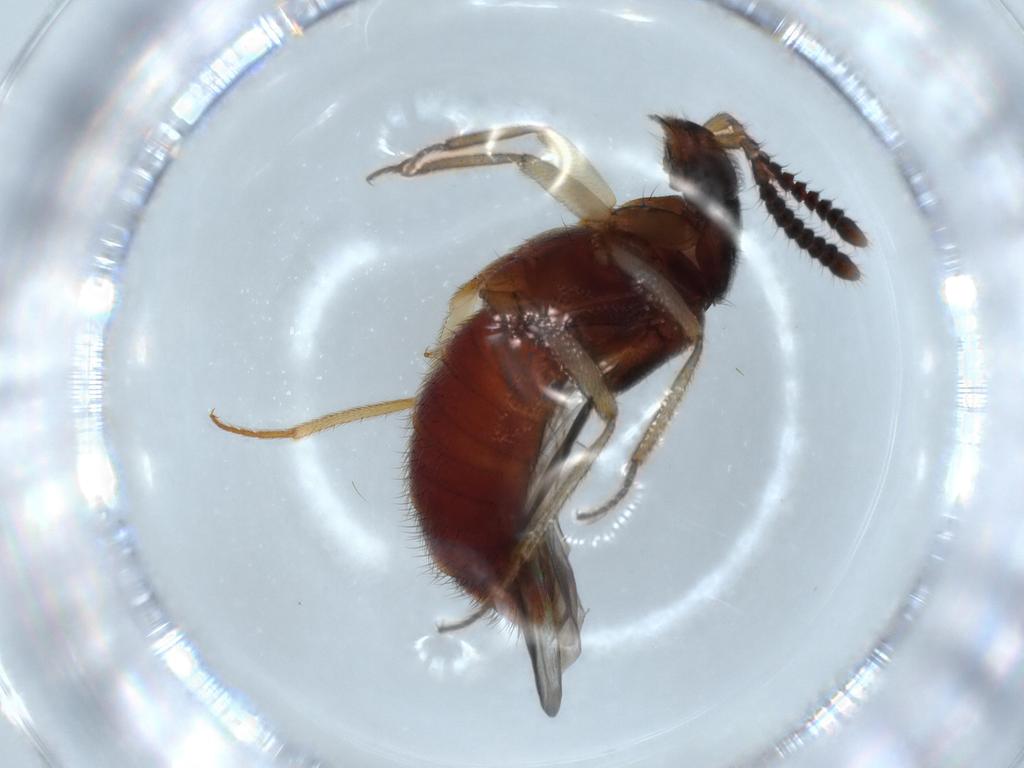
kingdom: Animalia
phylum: Arthropoda
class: Insecta
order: Coleoptera
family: Staphylinidae
